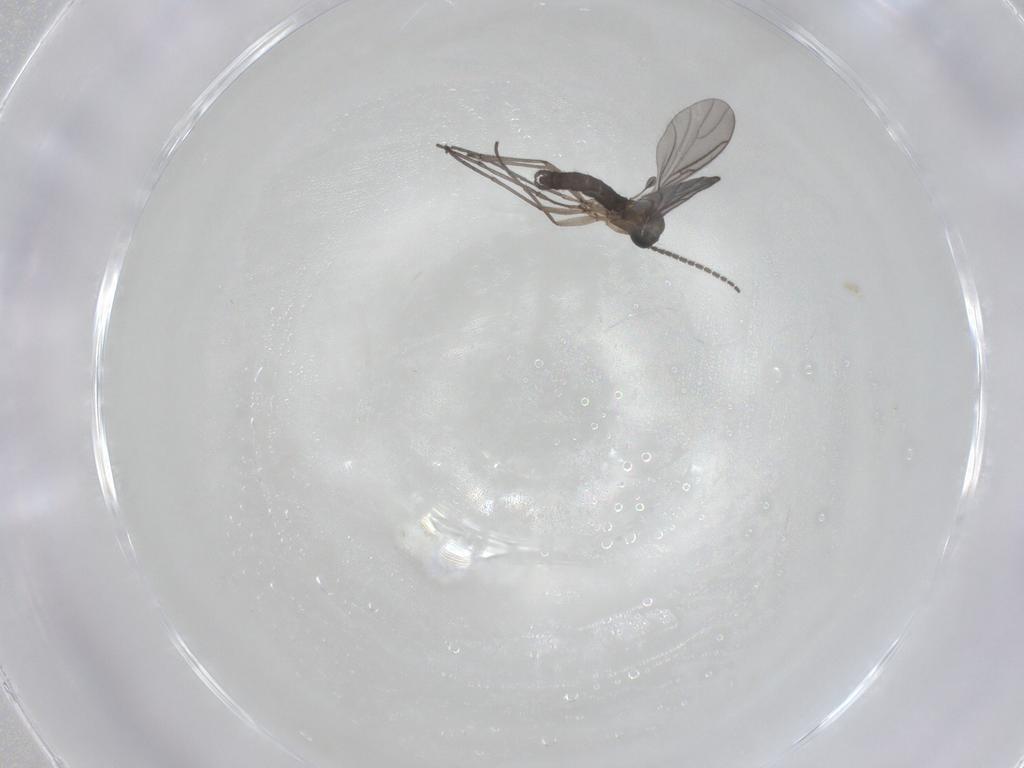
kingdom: Animalia
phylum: Arthropoda
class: Insecta
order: Diptera
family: Sciaridae
